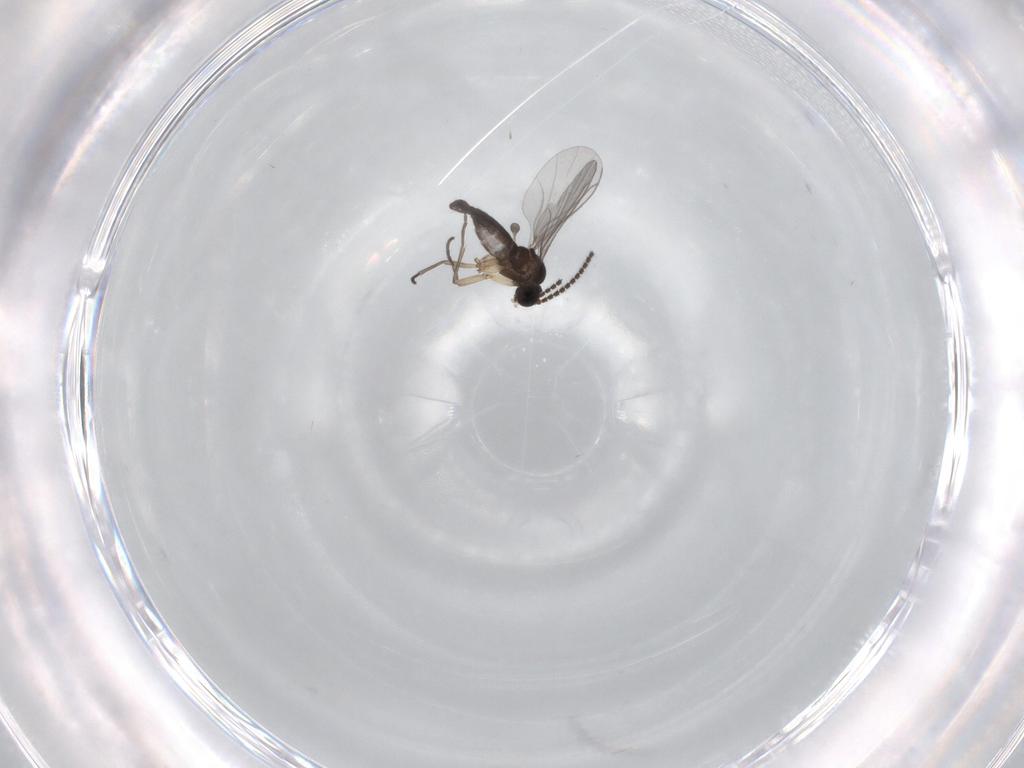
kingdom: Animalia
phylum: Arthropoda
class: Insecta
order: Diptera
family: Sciaridae
